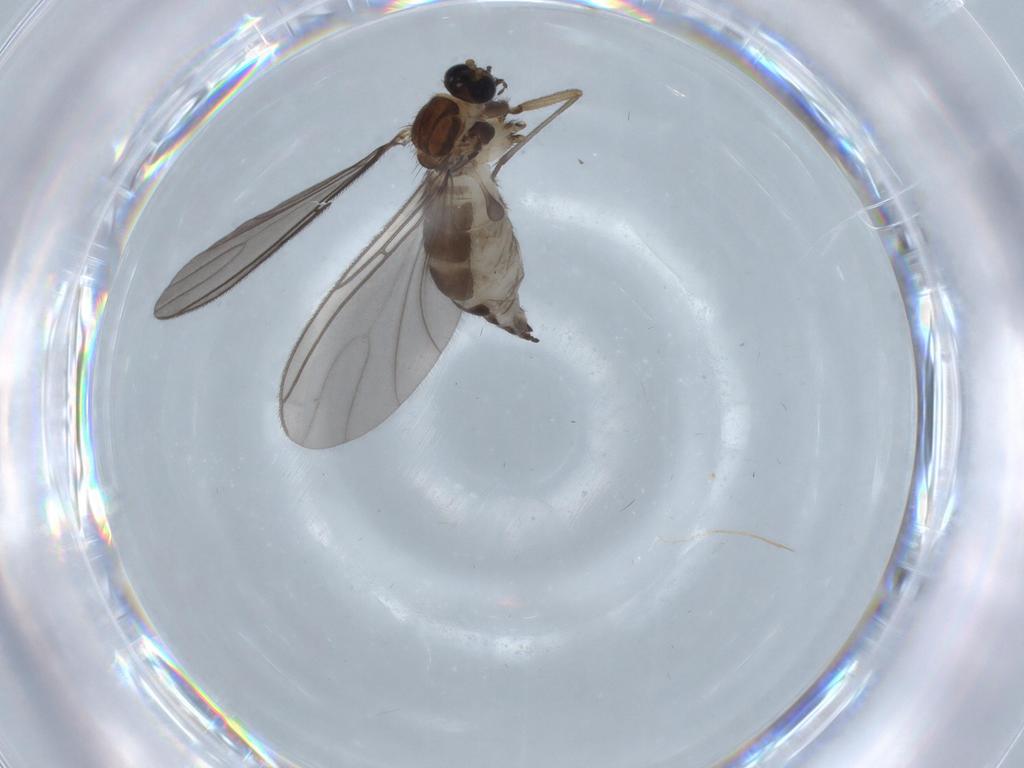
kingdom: Animalia
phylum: Arthropoda
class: Insecta
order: Diptera
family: Sciaridae
